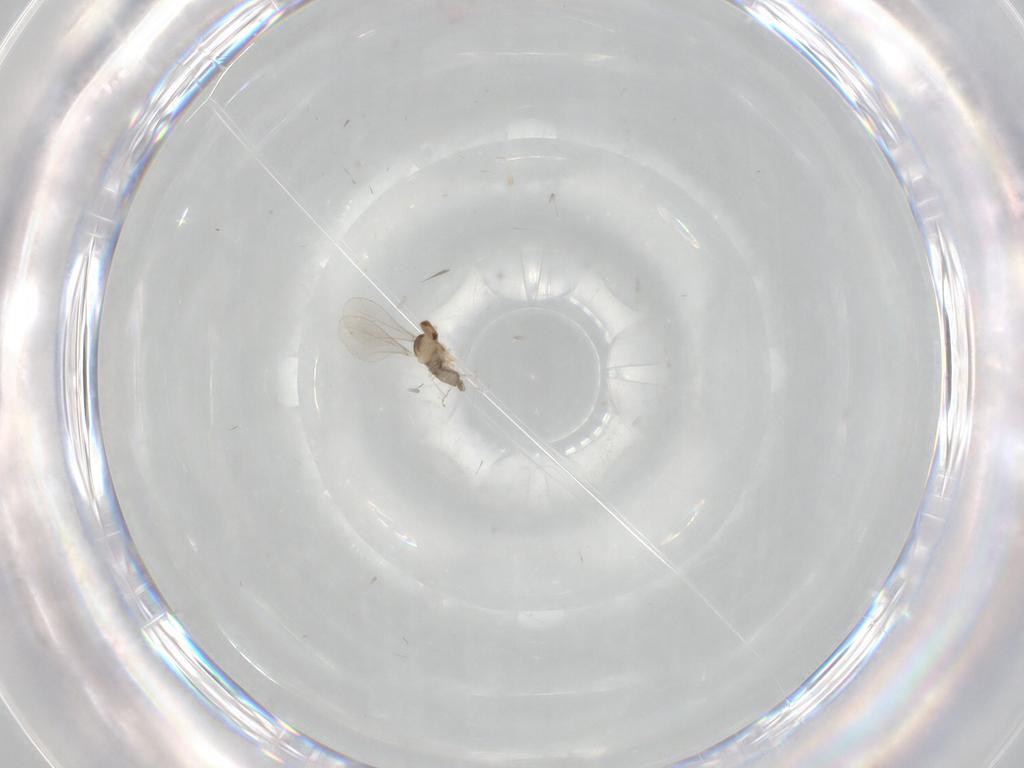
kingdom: Animalia
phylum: Arthropoda
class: Insecta
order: Diptera
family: Cecidomyiidae
